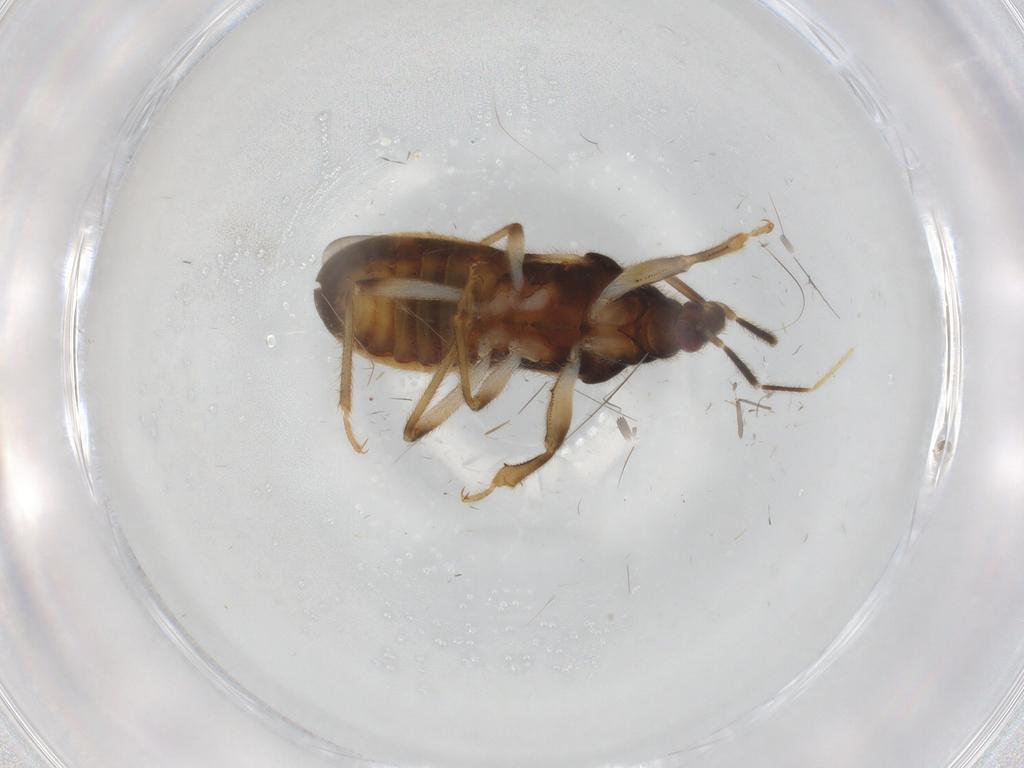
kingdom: Animalia
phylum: Arthropoda
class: Insecta
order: Hemiptera
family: Nabidae
